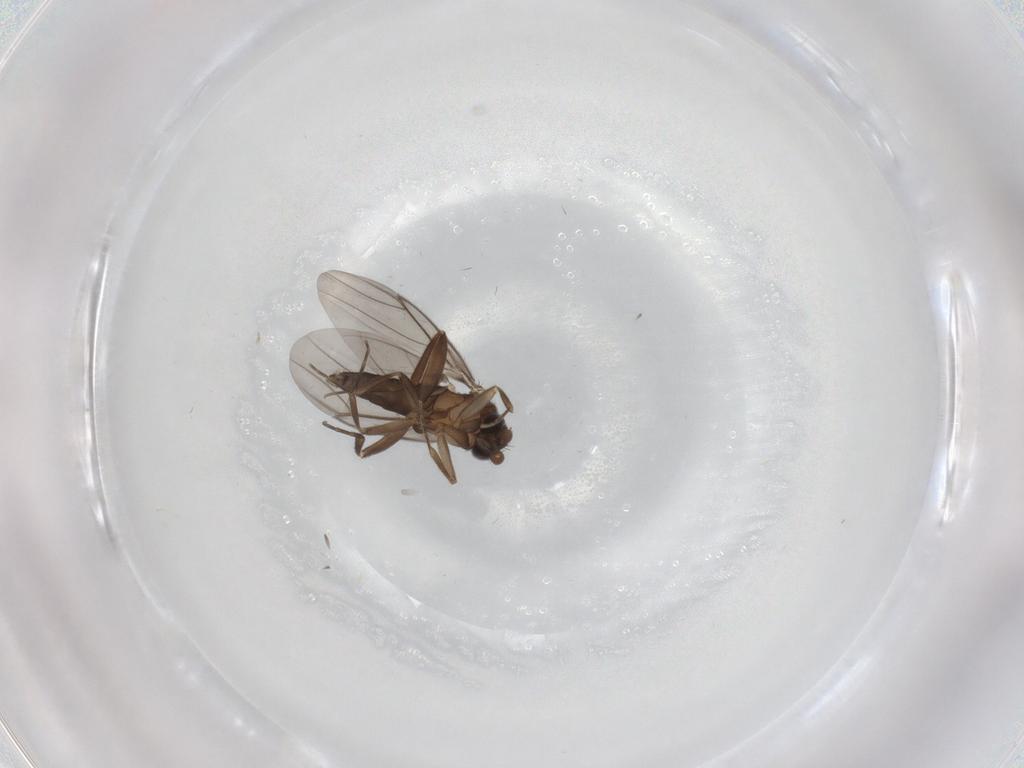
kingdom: Animalia
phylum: Arthropoda
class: Insecta
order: Diptera
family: Phoridae
